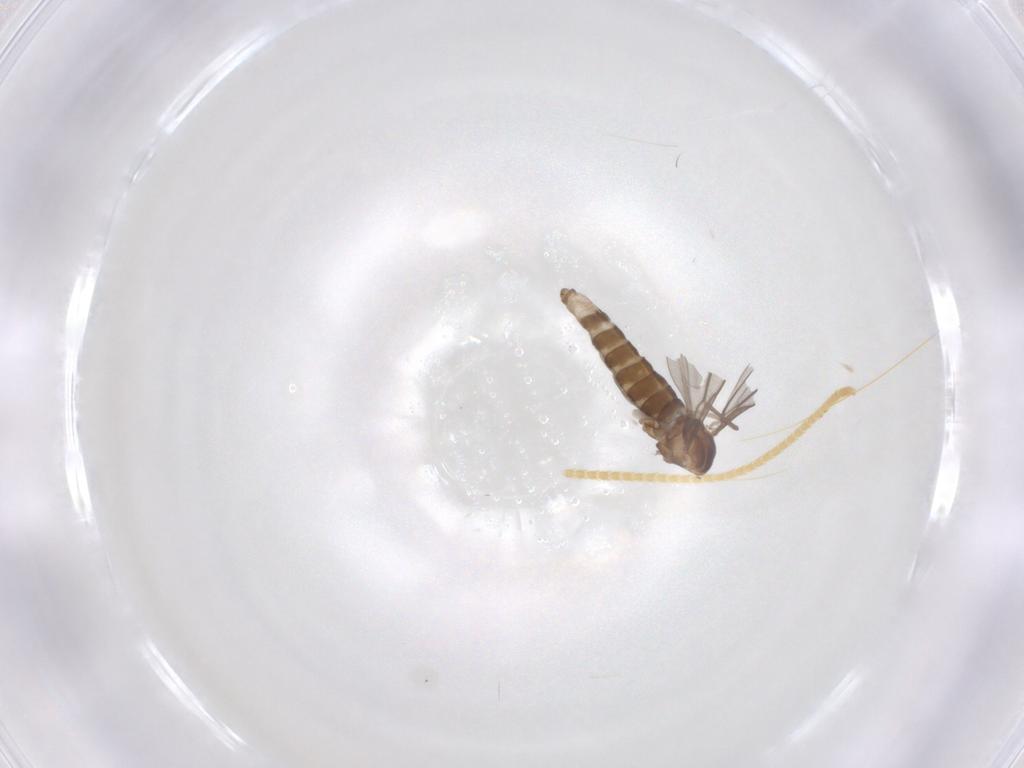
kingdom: Animalia
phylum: Arthropoda
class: Insecta
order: Diptera
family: Cecidomyiidae
